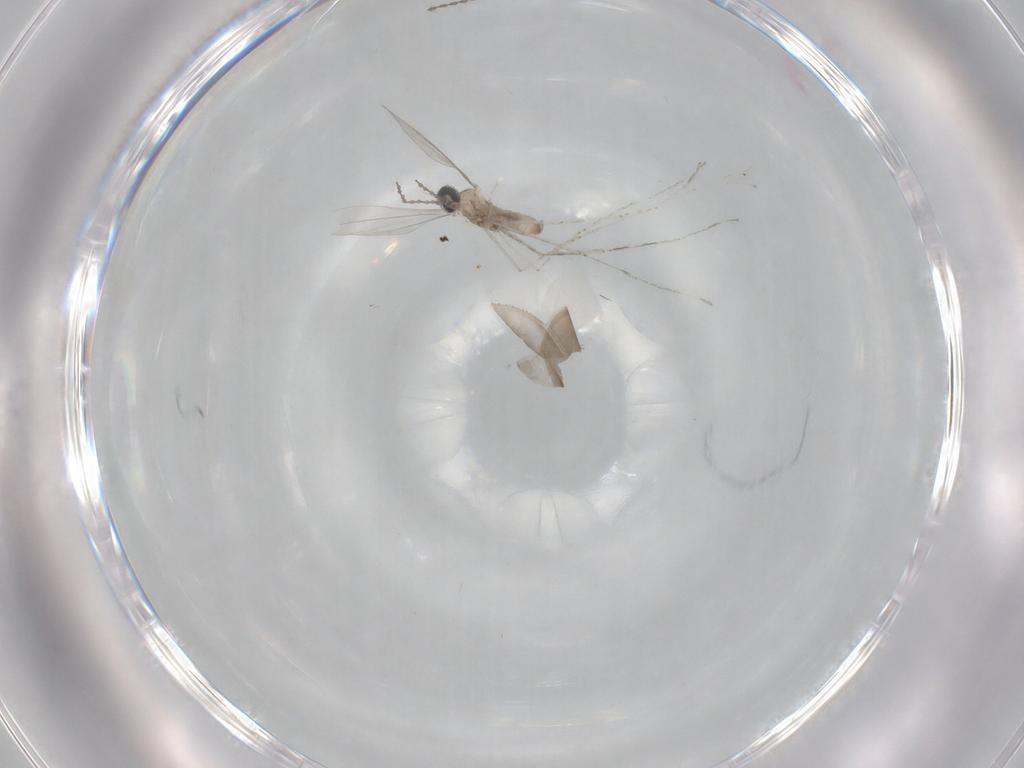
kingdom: Animalia
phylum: Arthropoda
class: Insecta
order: Diptera
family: Cecidomyiidae
